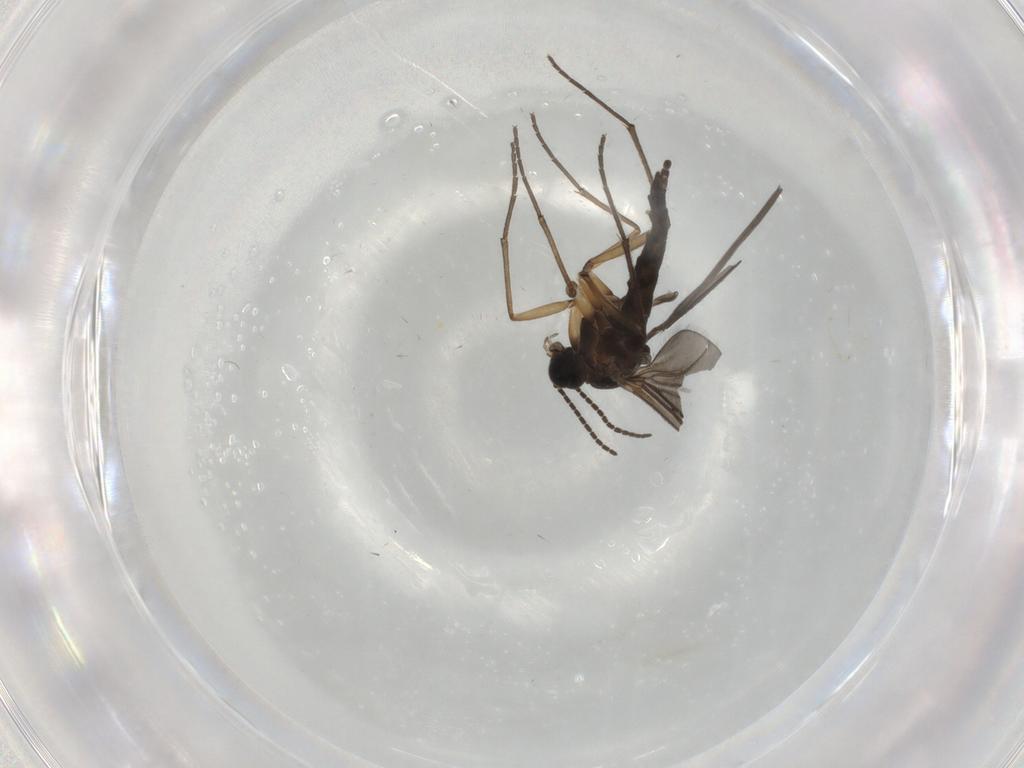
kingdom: Animalia
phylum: Arthropoda
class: Insecta
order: Diptera
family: Sciaridae
